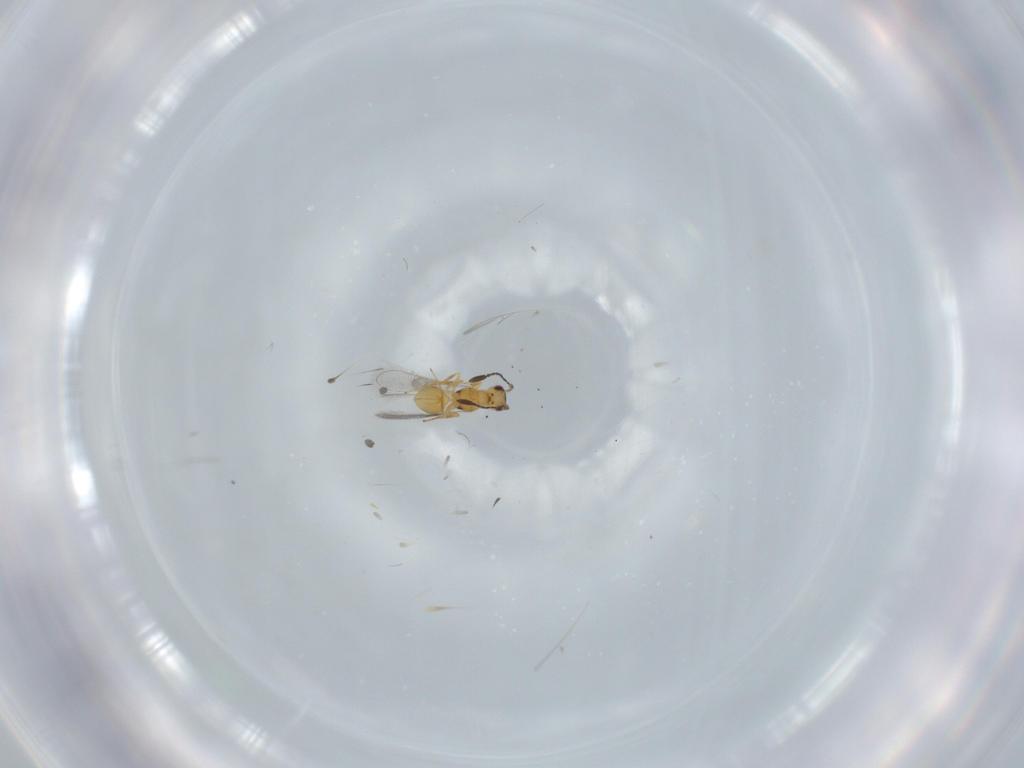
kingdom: Animalia
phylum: Arthropoda
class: Insecta
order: Hymenoptera
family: Mymaridae
